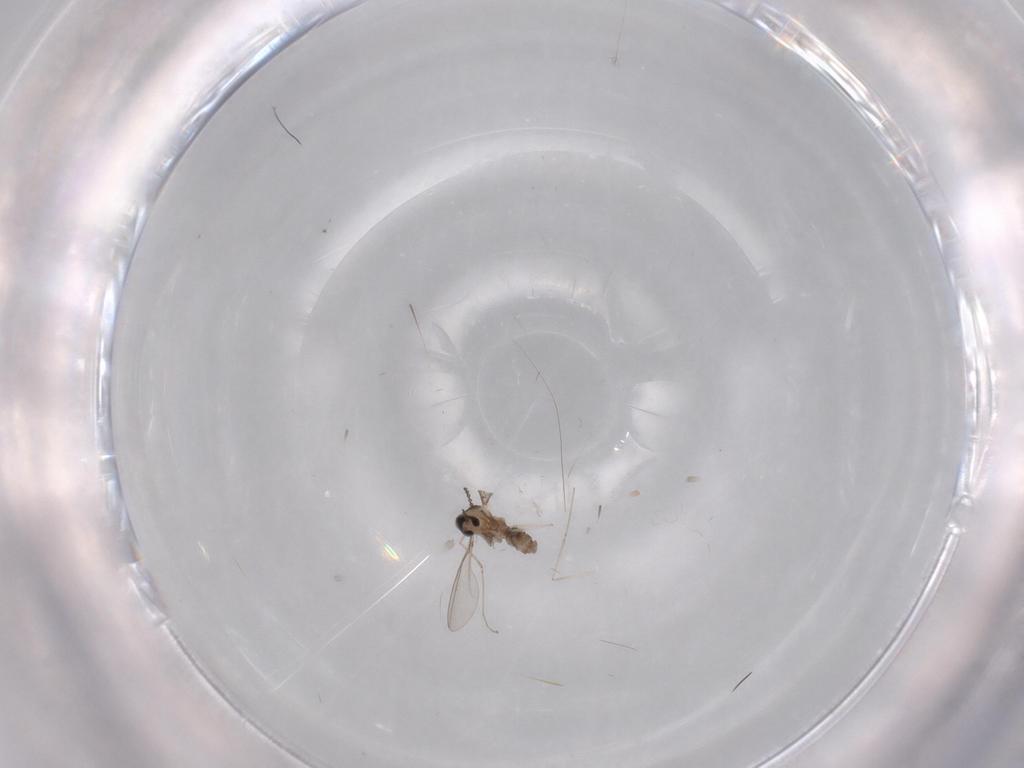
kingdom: Animalia
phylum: Arthropoda
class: Insecta
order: Diptera
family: Cecidomyiidae
